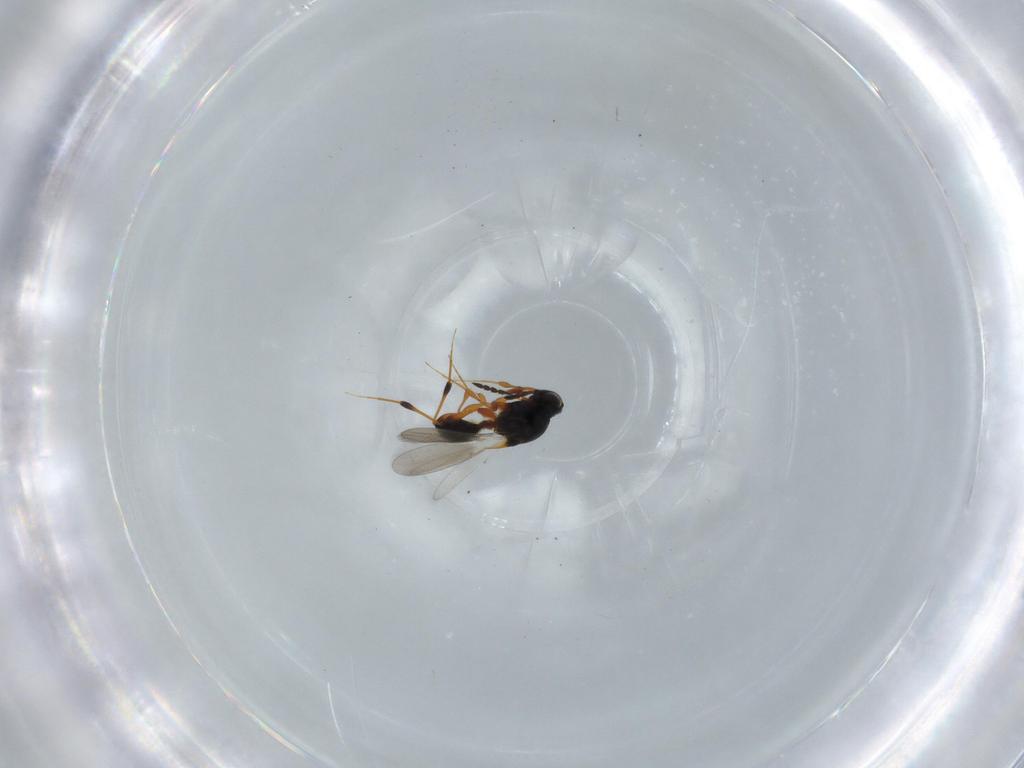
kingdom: Animalia
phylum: Arthropoda
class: Insecta
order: Hymenoptera
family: Platygastridae
